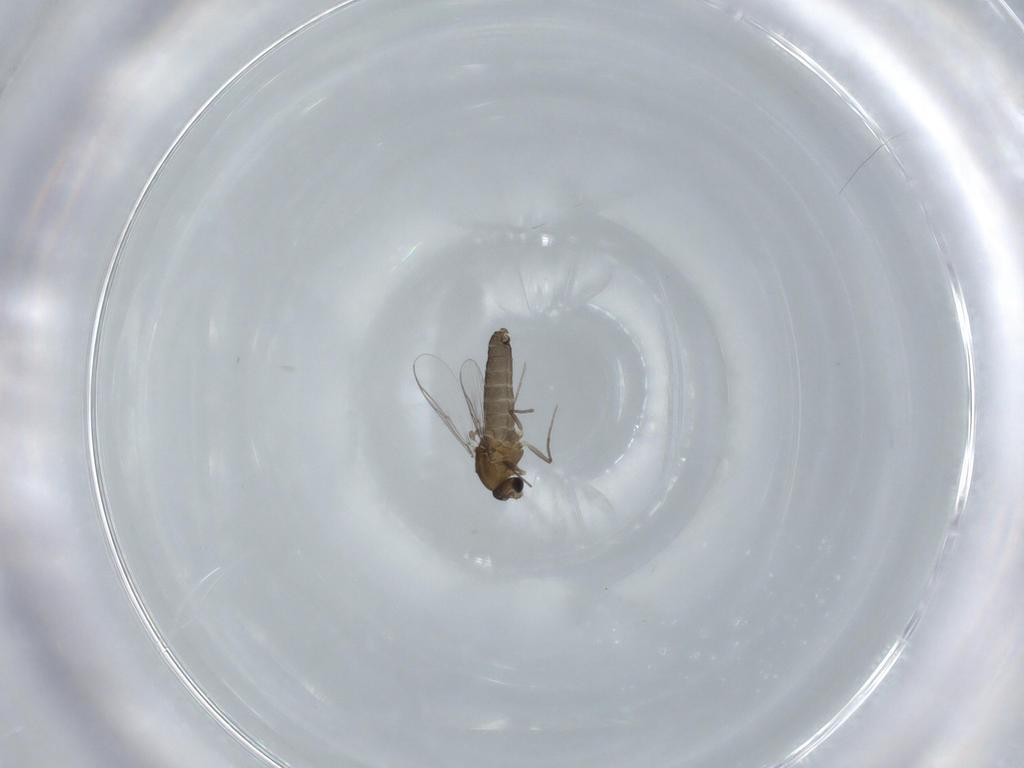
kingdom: Animalia
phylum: Arthropoda
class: Insecta
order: Diptera
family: Chironomidae
